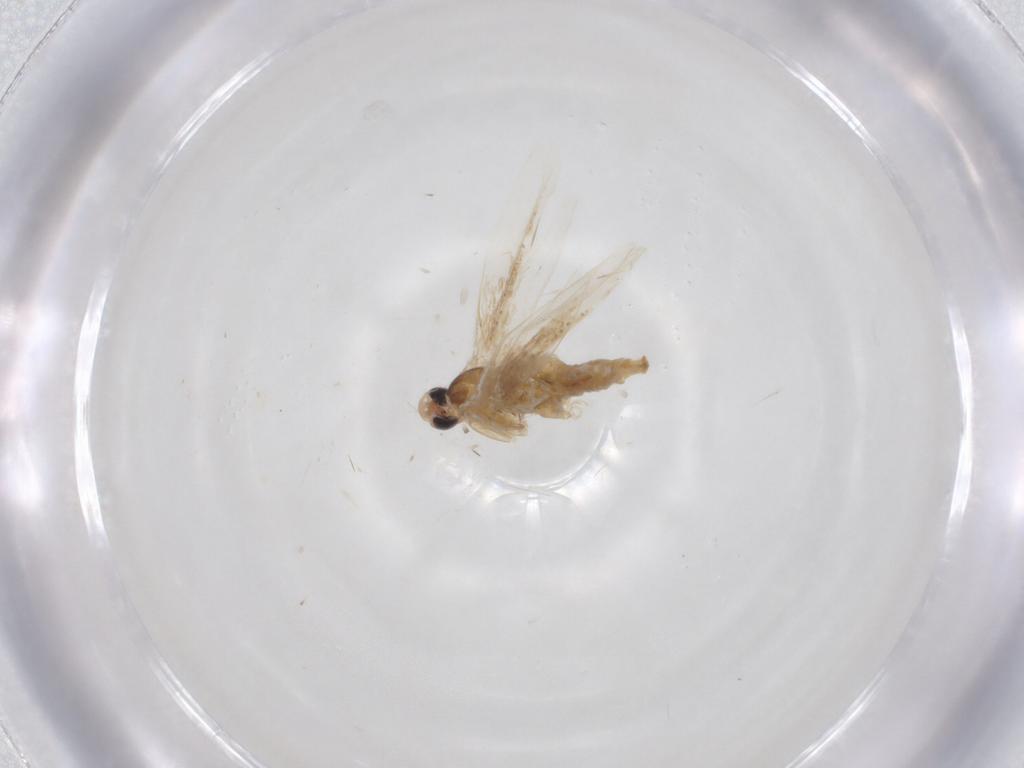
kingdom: Animalia
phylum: Arthropoda
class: Insecta
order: Lepidoptera
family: Bucculatricidae
